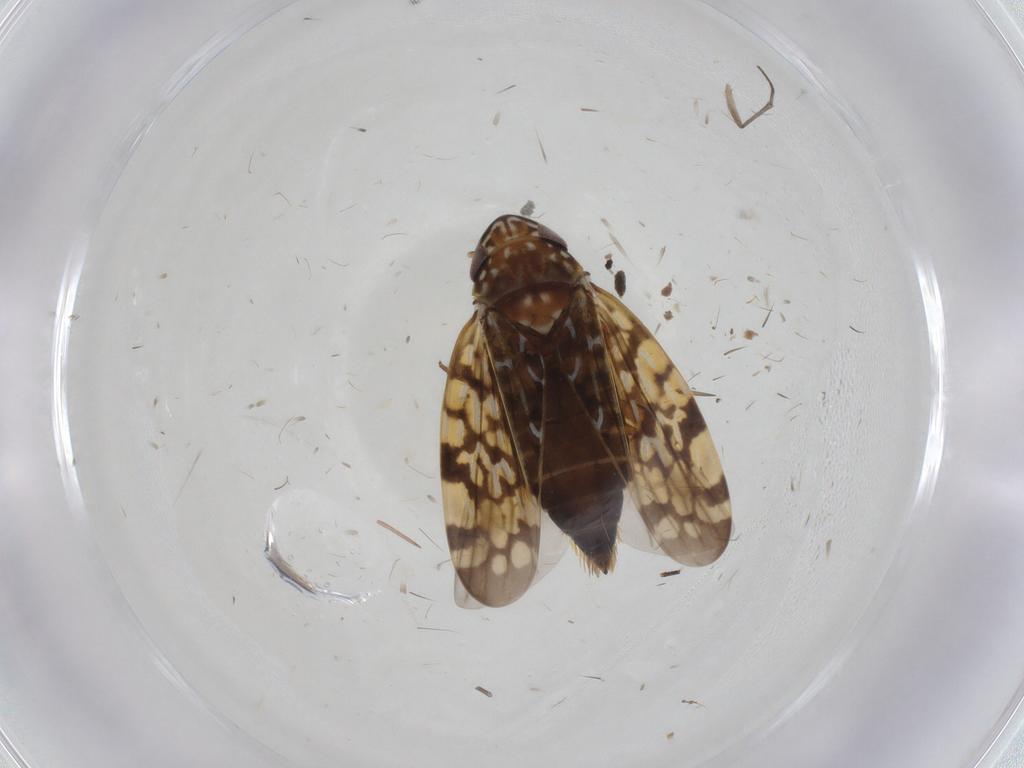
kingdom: Animalia
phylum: Arthropoda
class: Insecta
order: Hemiptera
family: Cicadellidae
